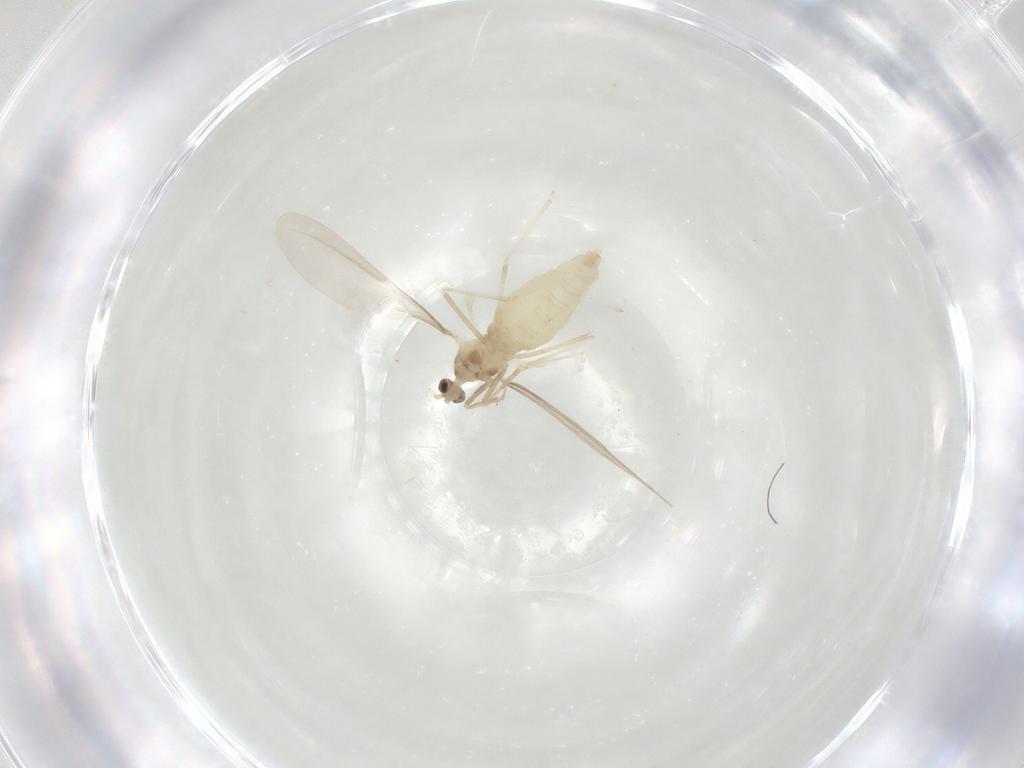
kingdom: Animalia
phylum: Arthropoda
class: Insecta
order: Diptera
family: Cecidomyiidae
